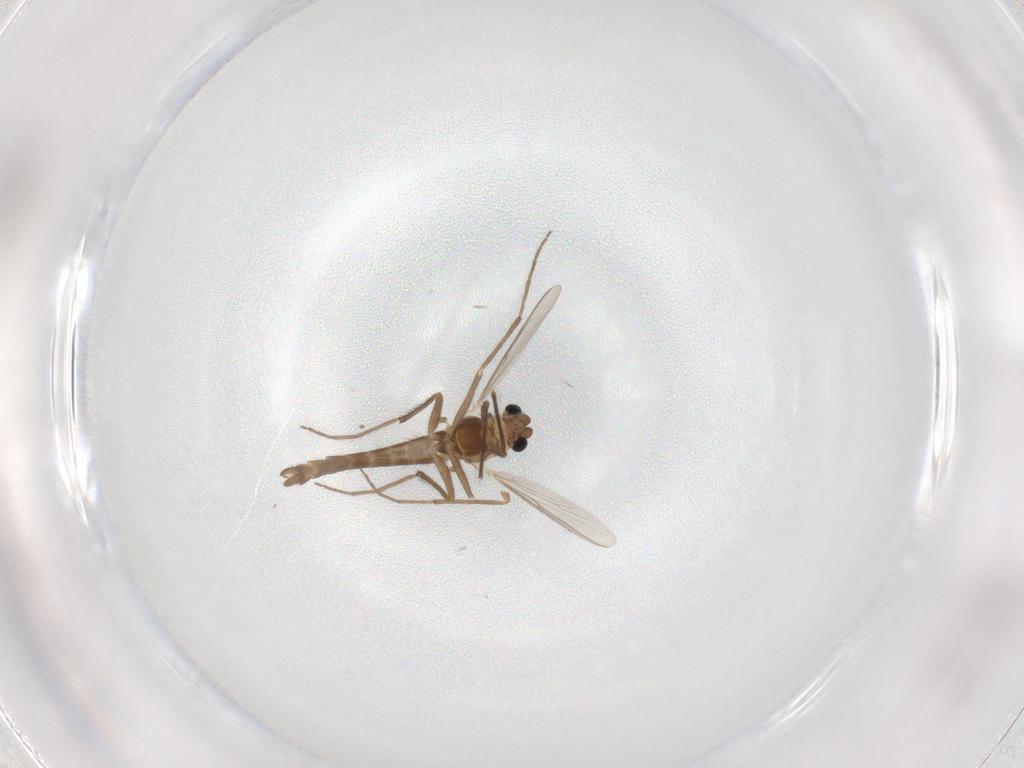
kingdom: Animalia
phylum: Arthropoda
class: Insecta
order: Diptera
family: Chironomidae
